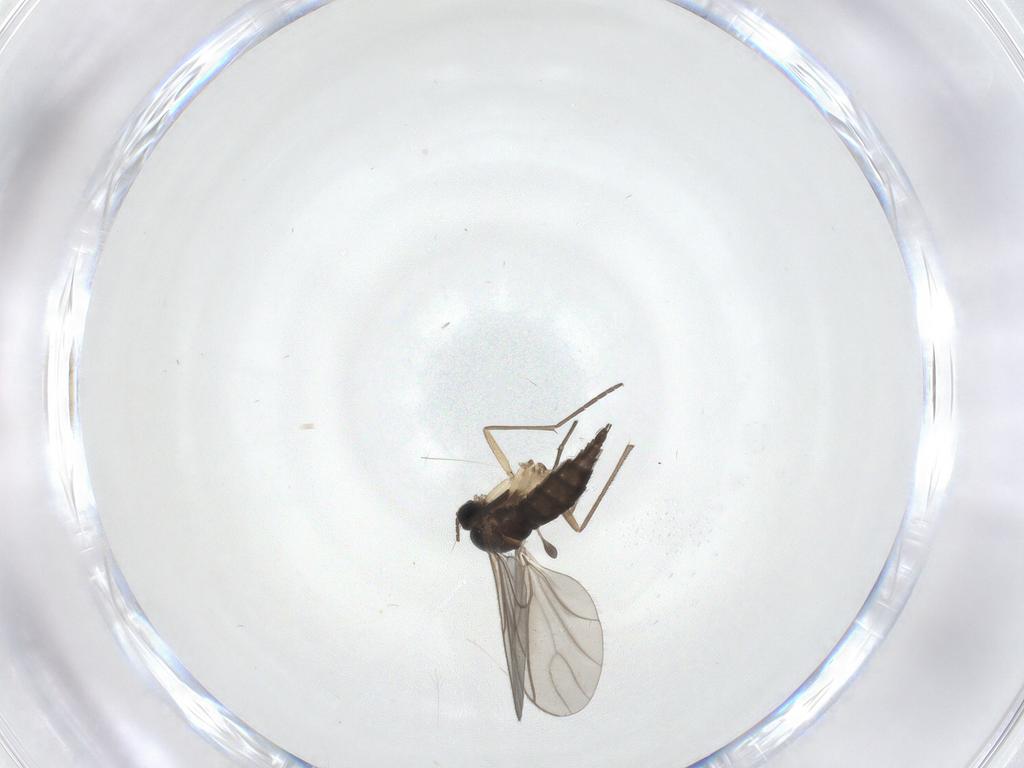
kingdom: Animalia
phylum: Arthropoda
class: Insecta
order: Diptera
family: Sciaridae
